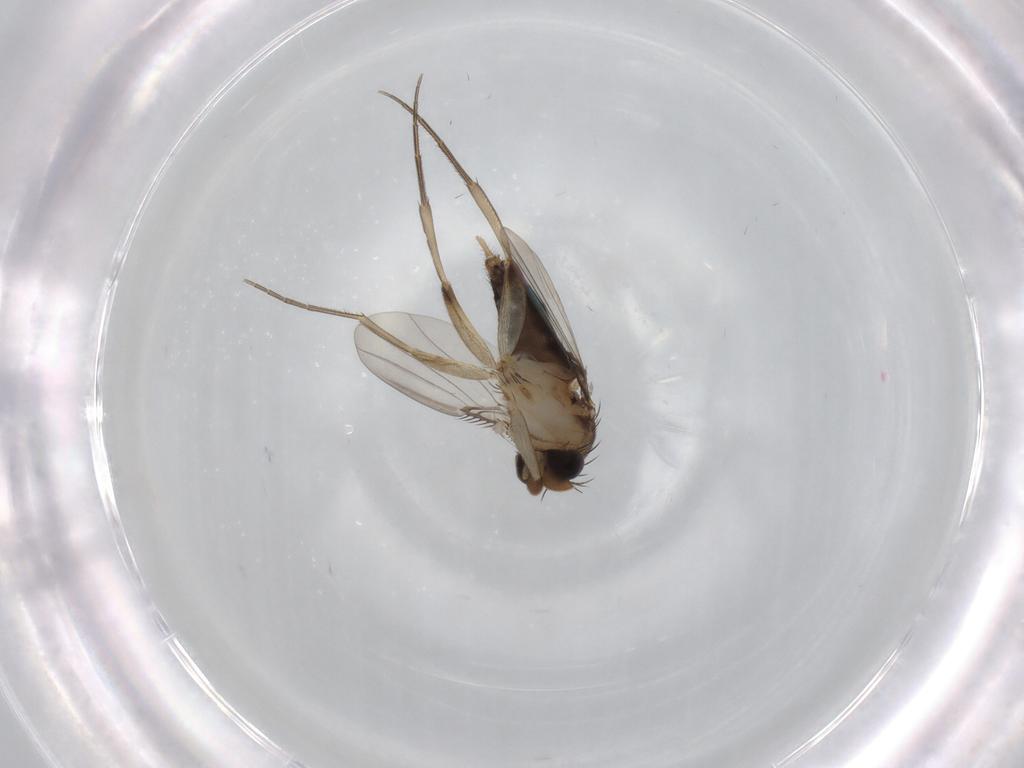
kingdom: Animalia
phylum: Arthropoda
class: Insecta
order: Diptera
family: Phoridae
